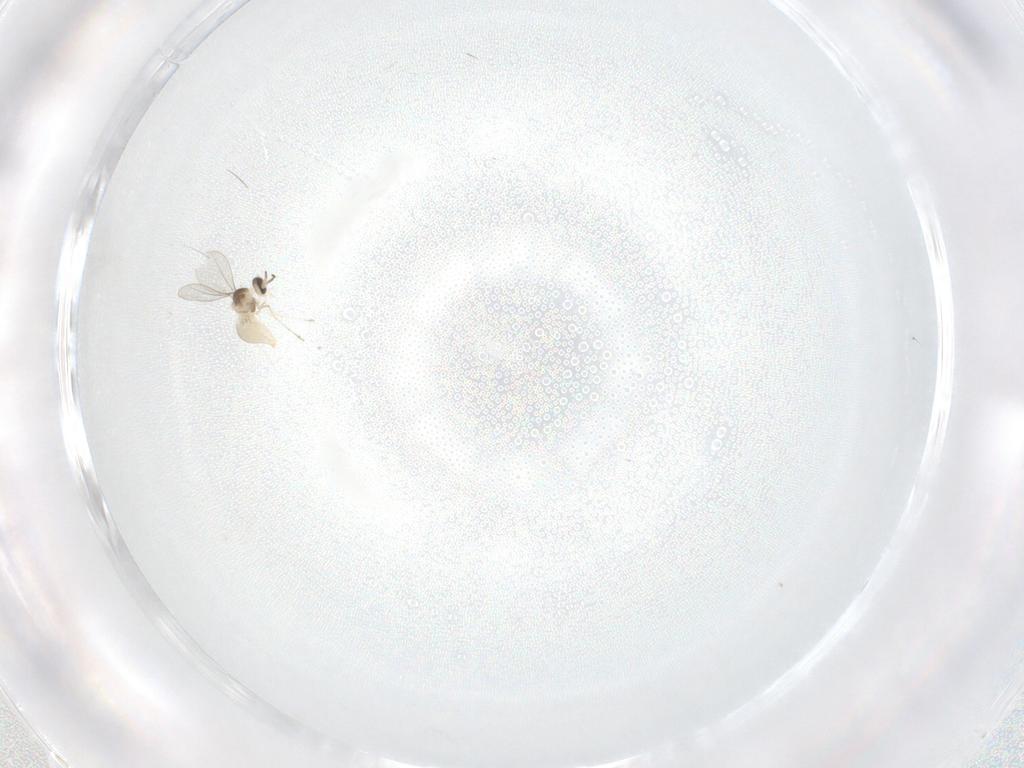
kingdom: Animalia
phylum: Arthropoda
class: Insecta
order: Diptera
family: Cecidomyiidae
